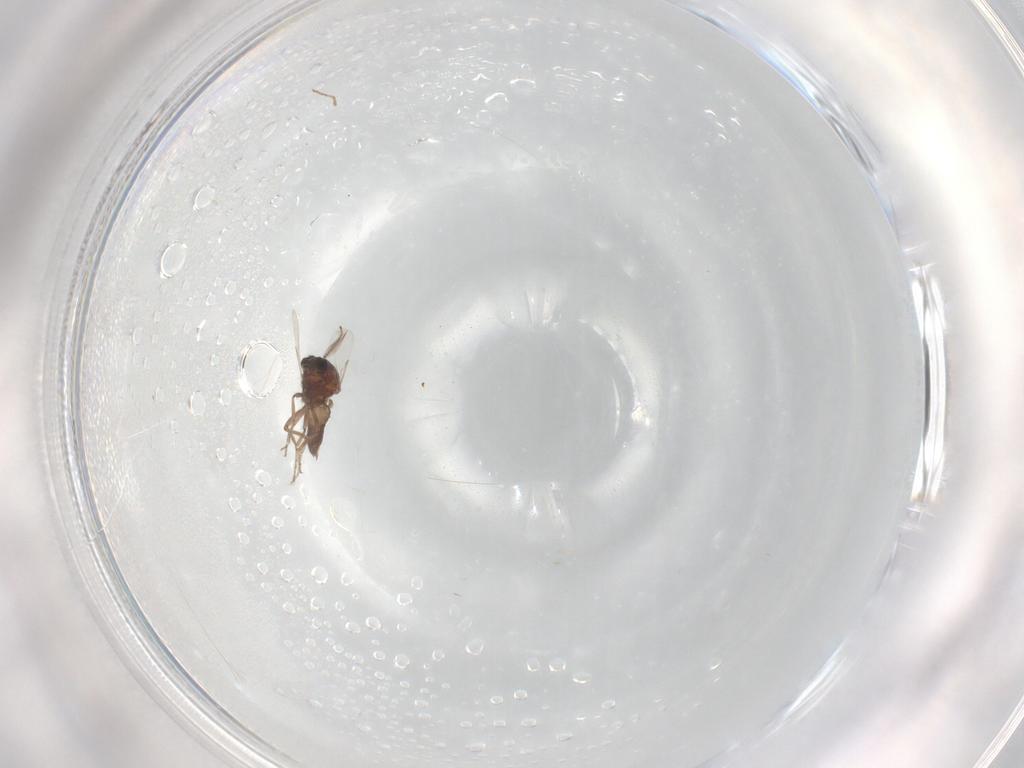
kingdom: Animalia
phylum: Arthropoda
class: Insecta
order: Diptera
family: Ceratopogonidae
